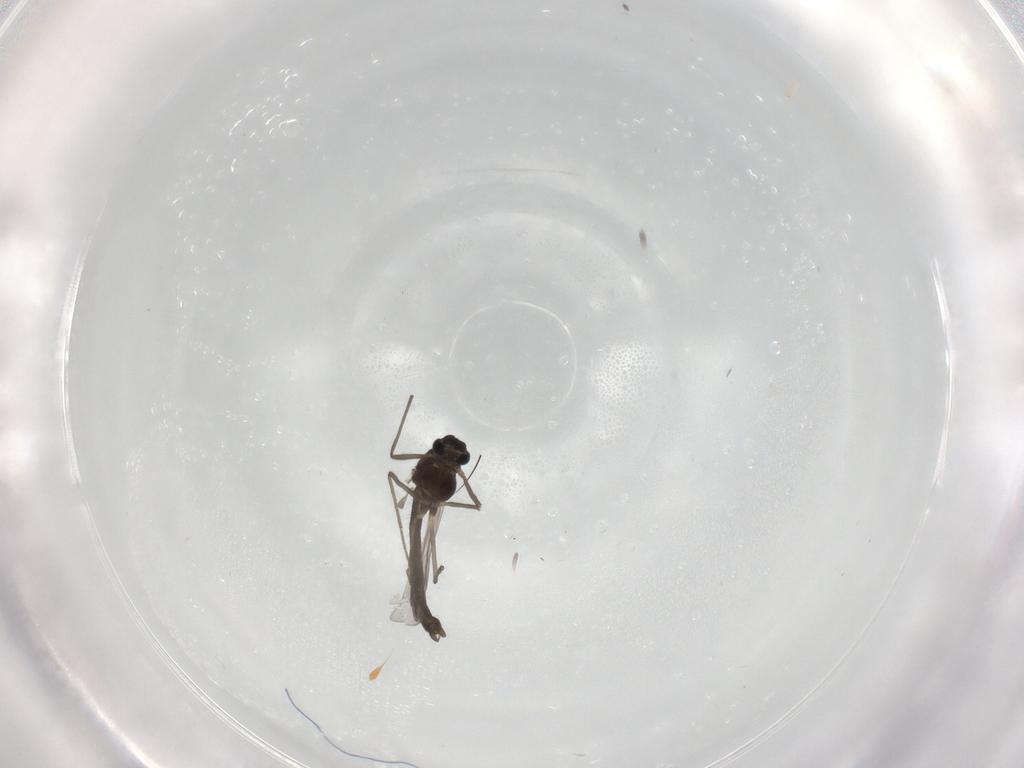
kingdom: Animalia
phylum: Arthropoda
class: Insecta
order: Diptera
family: Chironomidae
